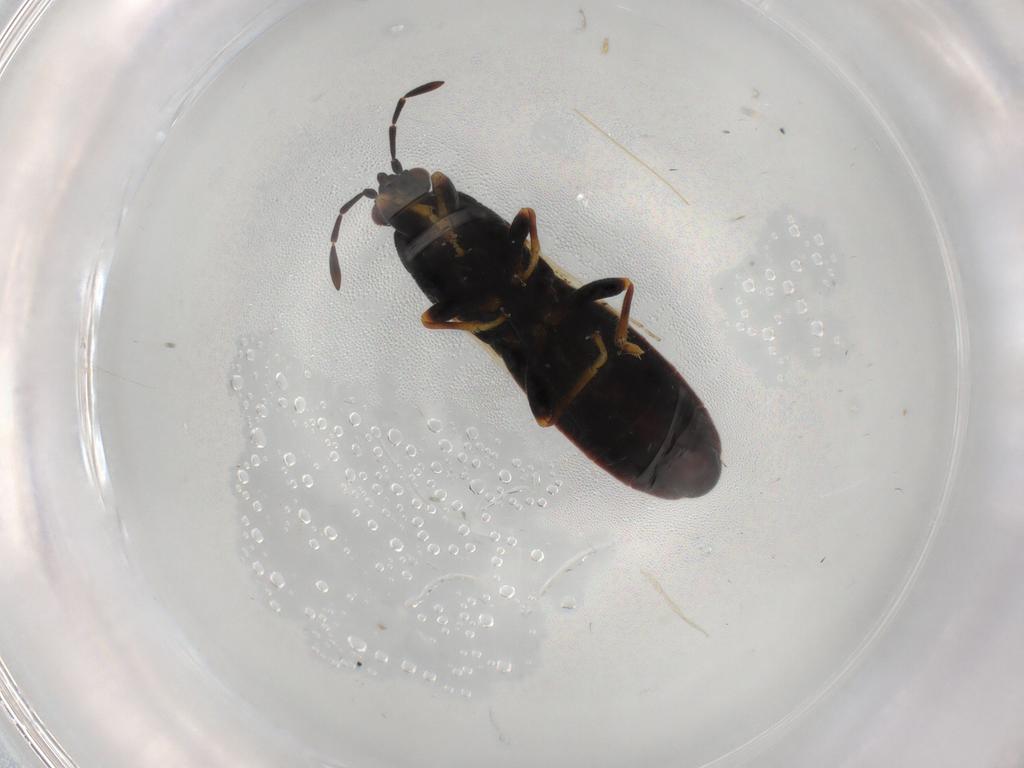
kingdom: Animalia
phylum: Arthropoda
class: Insecta
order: Hemiptera
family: Blissidae
